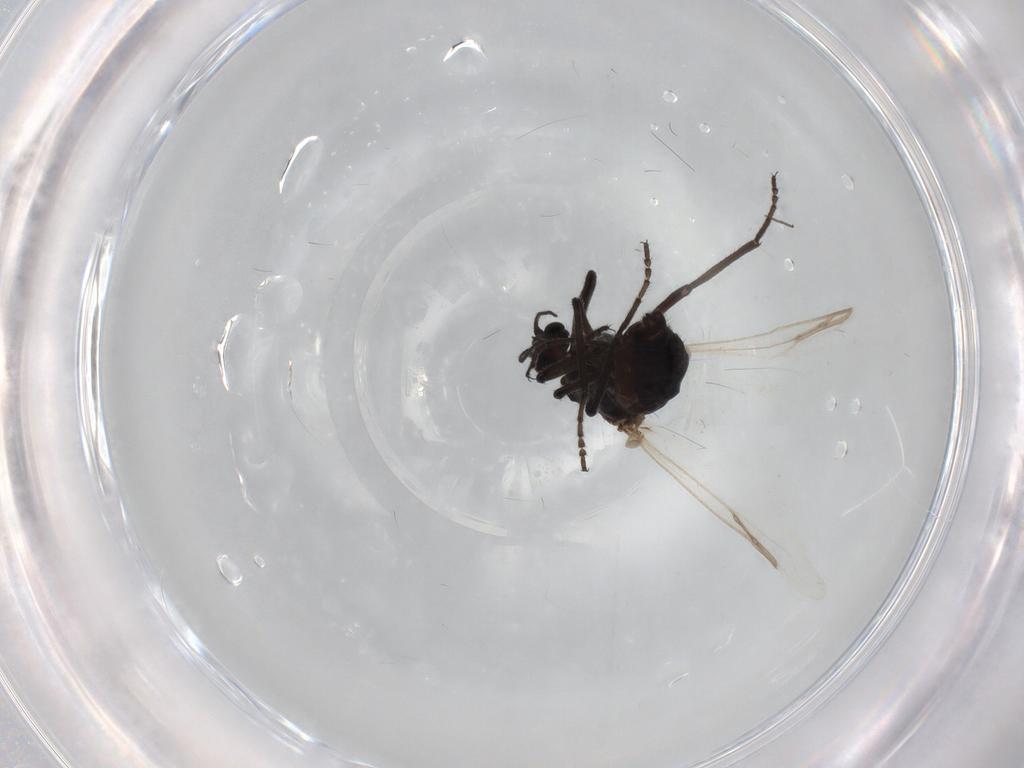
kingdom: Animalia
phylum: Arthropoda
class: Insecta
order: Diptera
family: Ceratopogonidae
